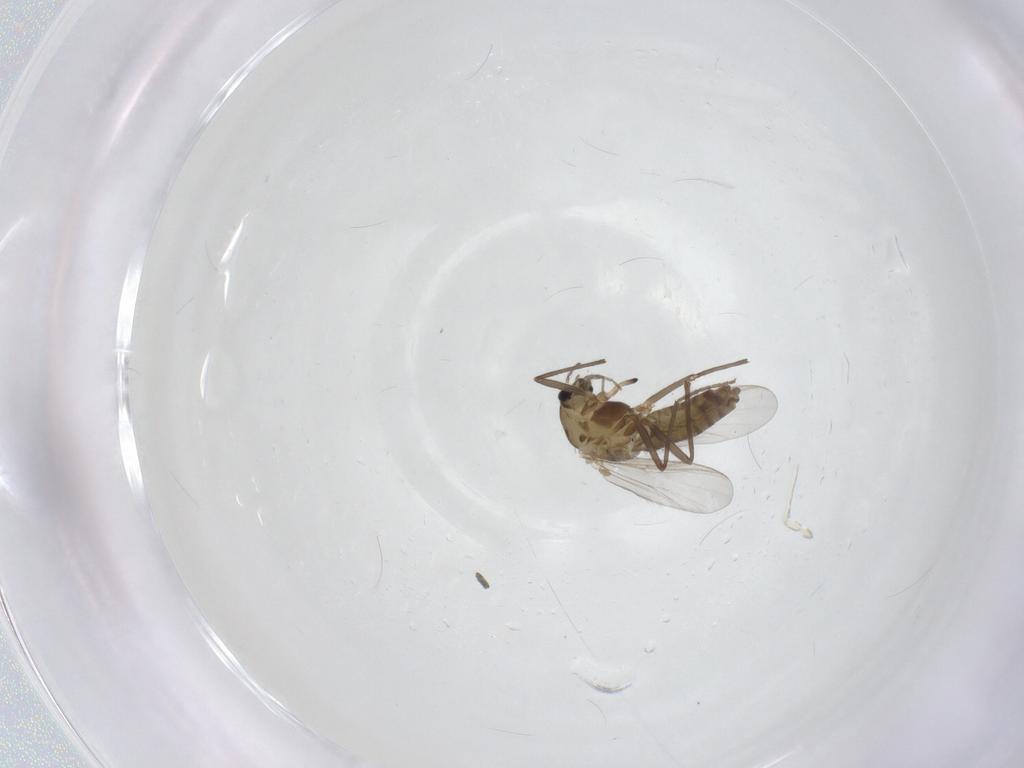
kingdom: Animalia
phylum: Arthropoda
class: Insecta
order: Diptera
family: Chironomidae
